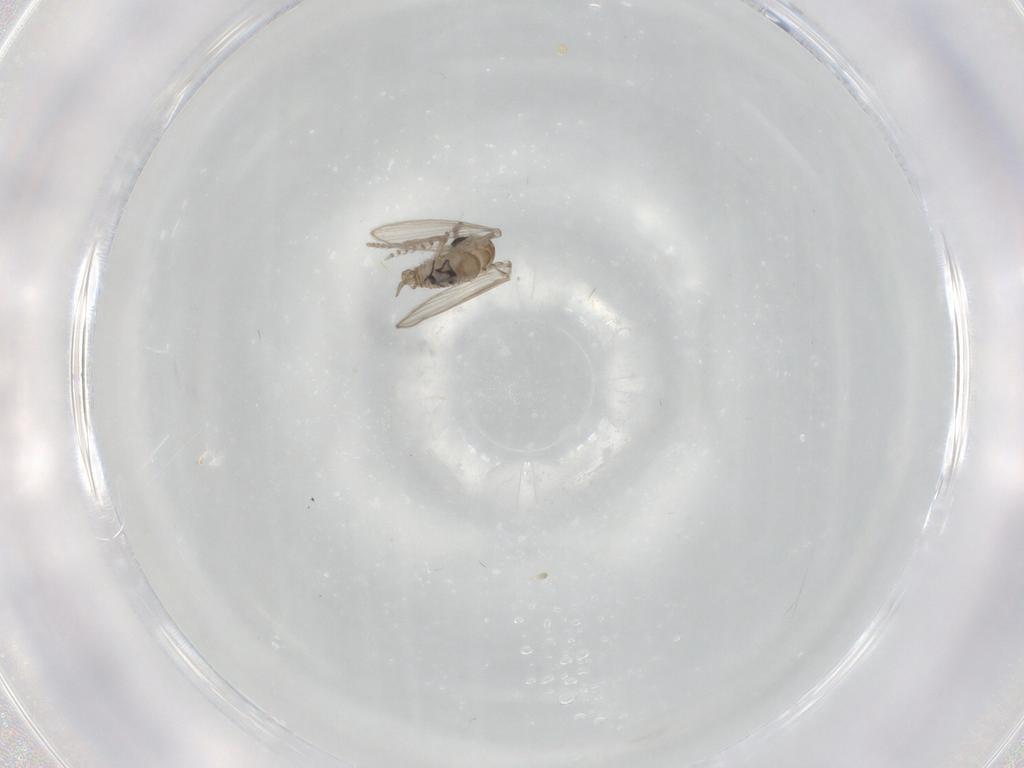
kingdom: Animalia
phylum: Arthropoda
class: Insecta
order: Diptera
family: Psychodidae
